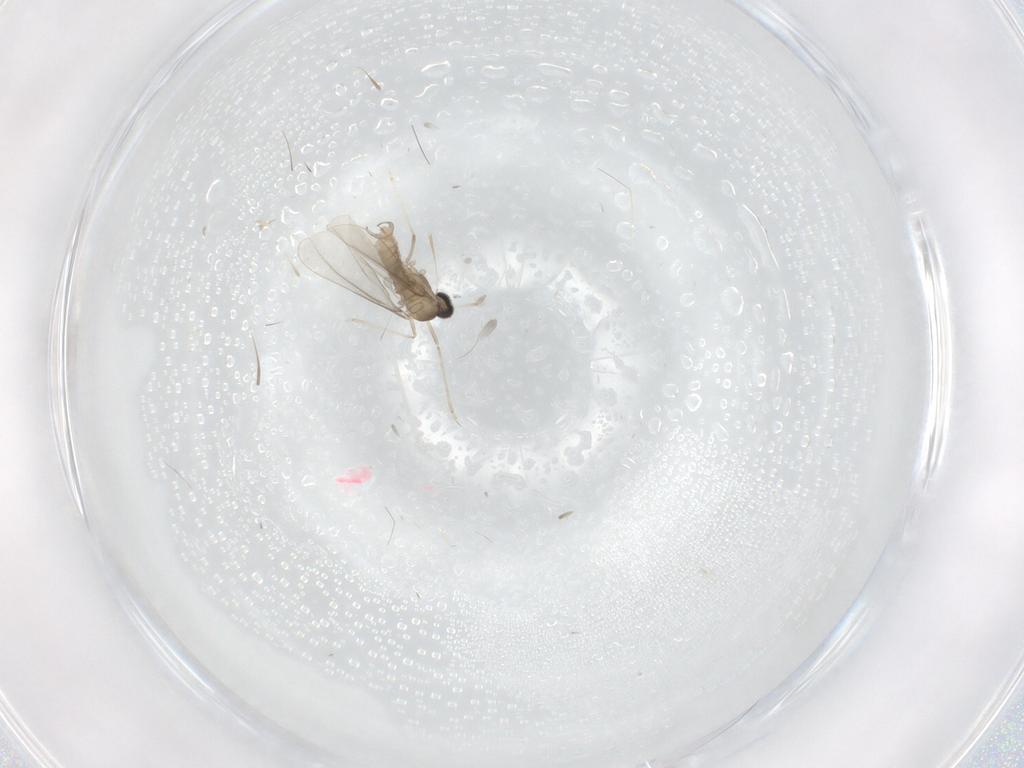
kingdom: Animalia
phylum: Arthropoda
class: Insecta
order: Diptera
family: Cecidomyiidae
